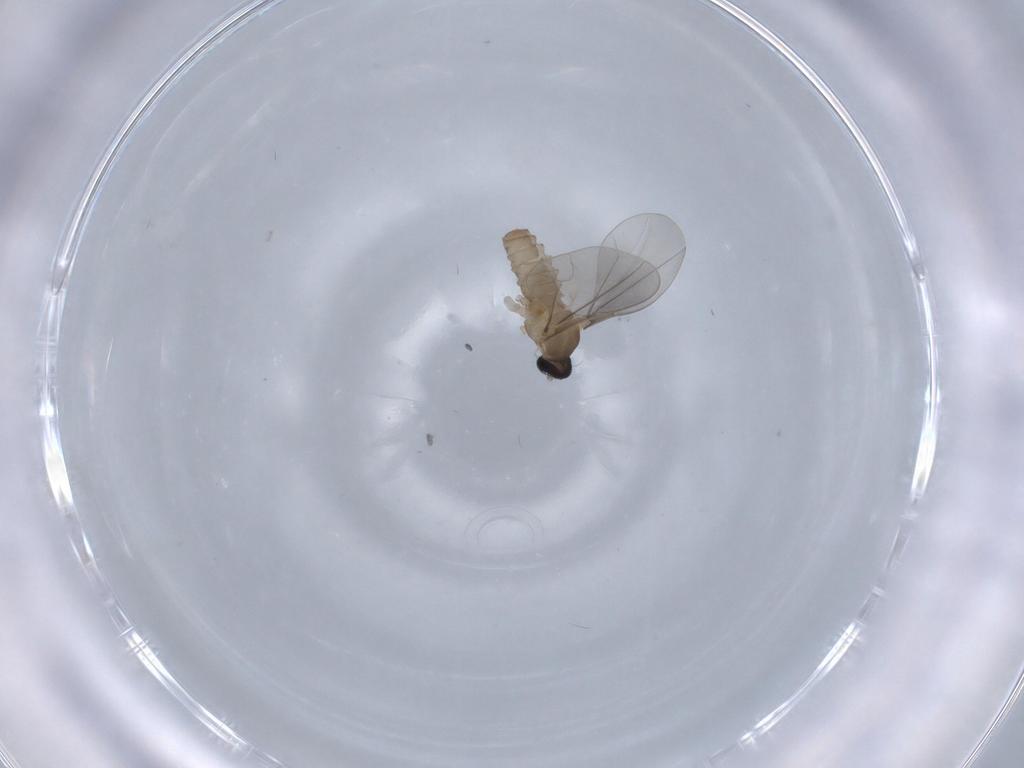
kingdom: Animalia
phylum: Arthropoda
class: Insecta
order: Diptera
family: Cecidomyiidae
